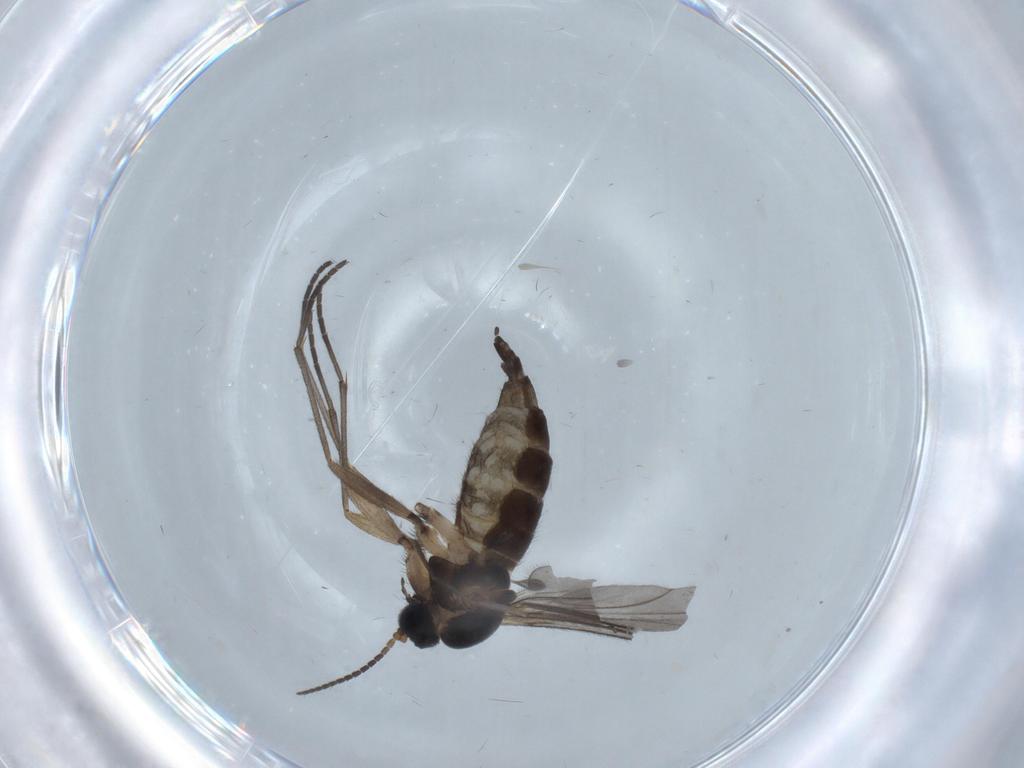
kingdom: Animalia
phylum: Arthropoda
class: Insecta
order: Diptera
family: Sciaridae
